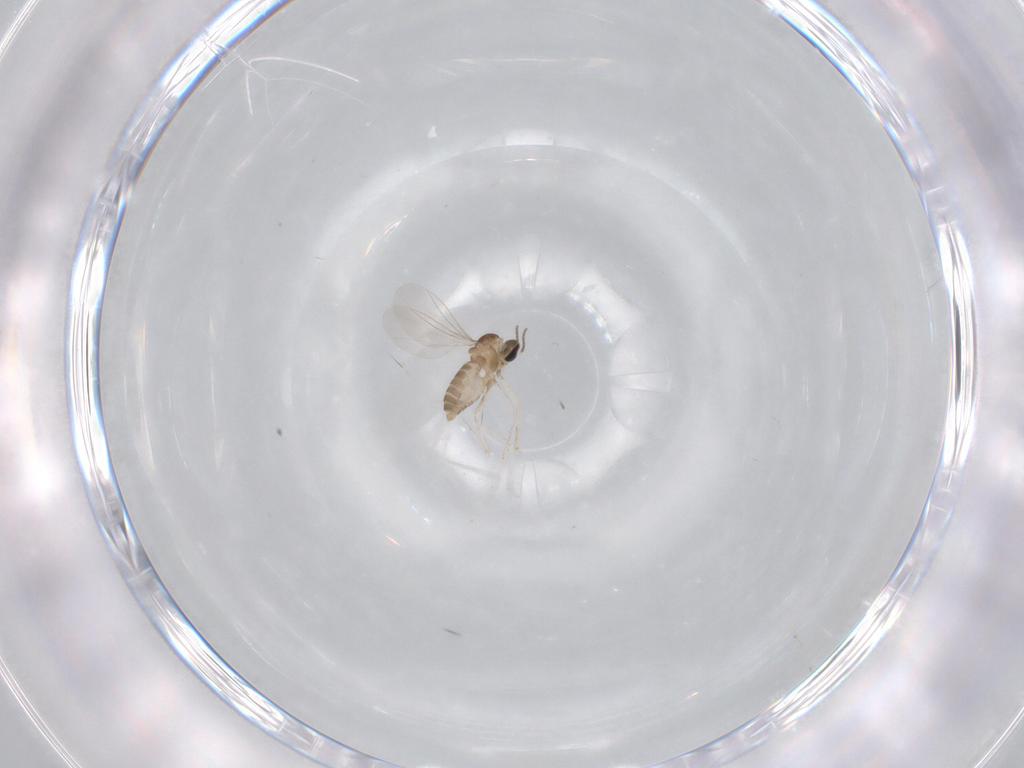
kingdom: Animalia
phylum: Arthropoda
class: Insecta
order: Diptera
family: Cecidomyiidae
